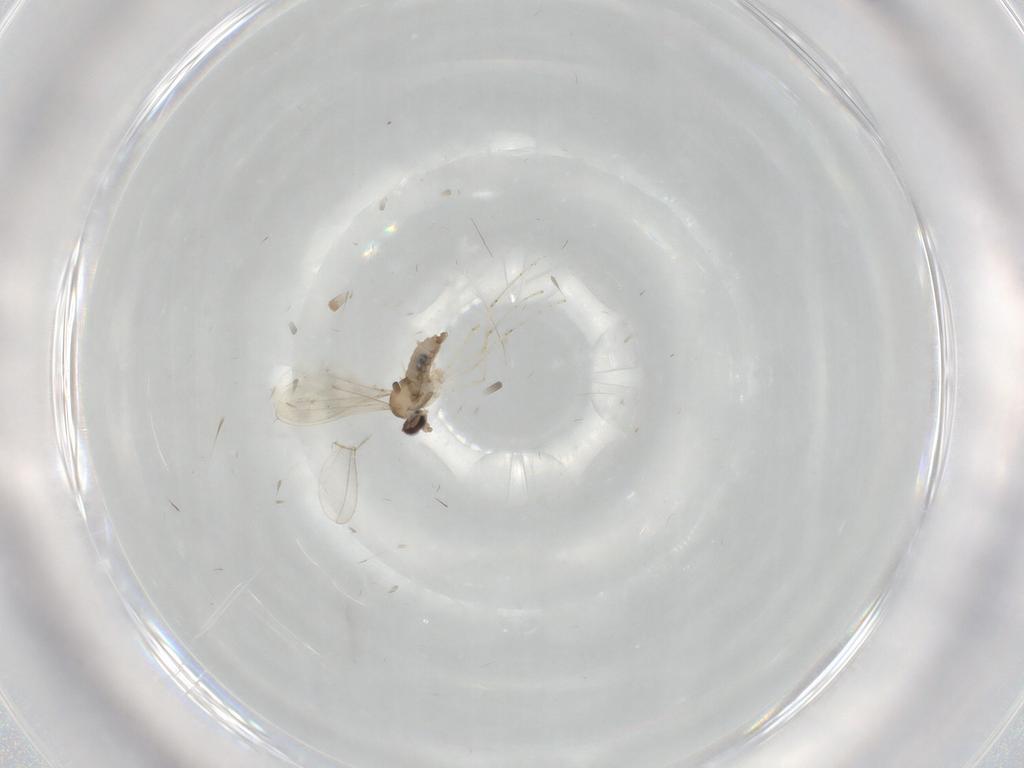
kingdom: Animalia
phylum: Arthropoda
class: Insecta
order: Diptera
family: Cecidomyiidae
